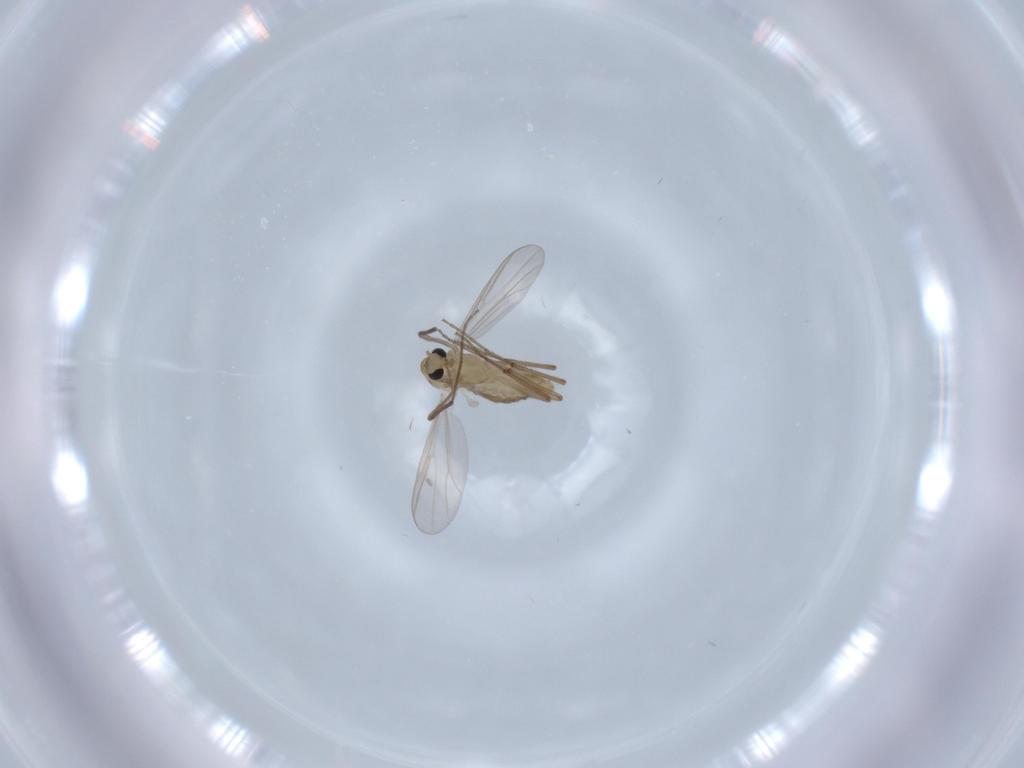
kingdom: Animalia
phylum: Arthropoda
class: Insecta
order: Diptera
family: Chironomidae
